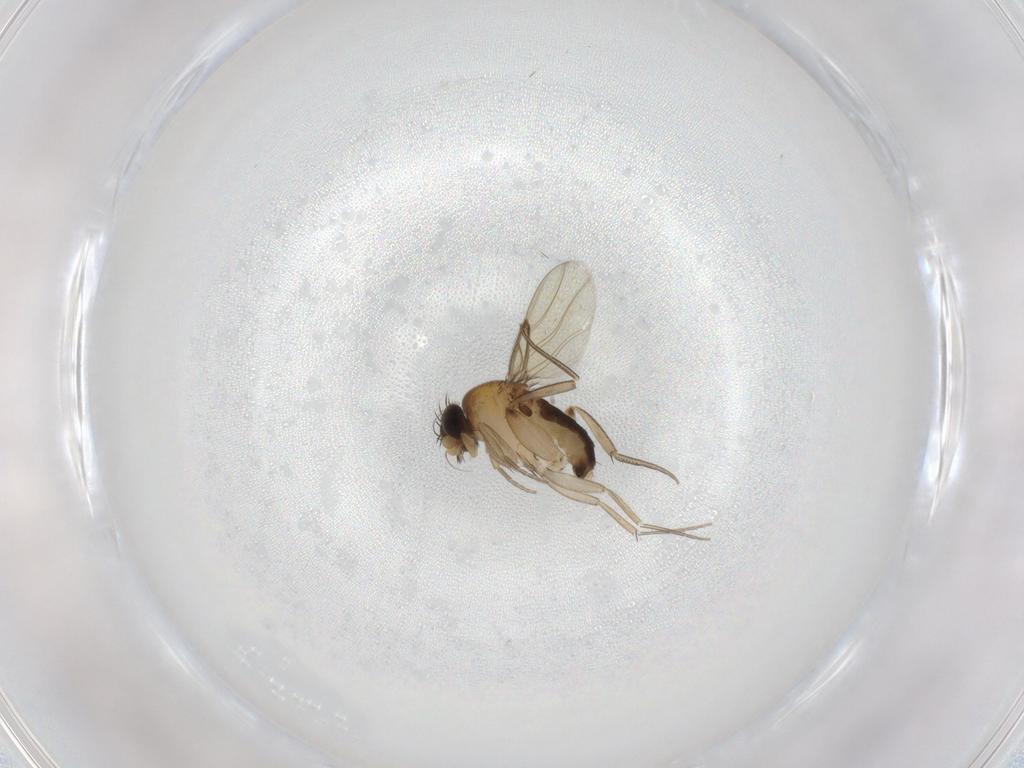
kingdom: Animalia
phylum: Arthropoda
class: Insecta
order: Diptera
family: Phoridae
